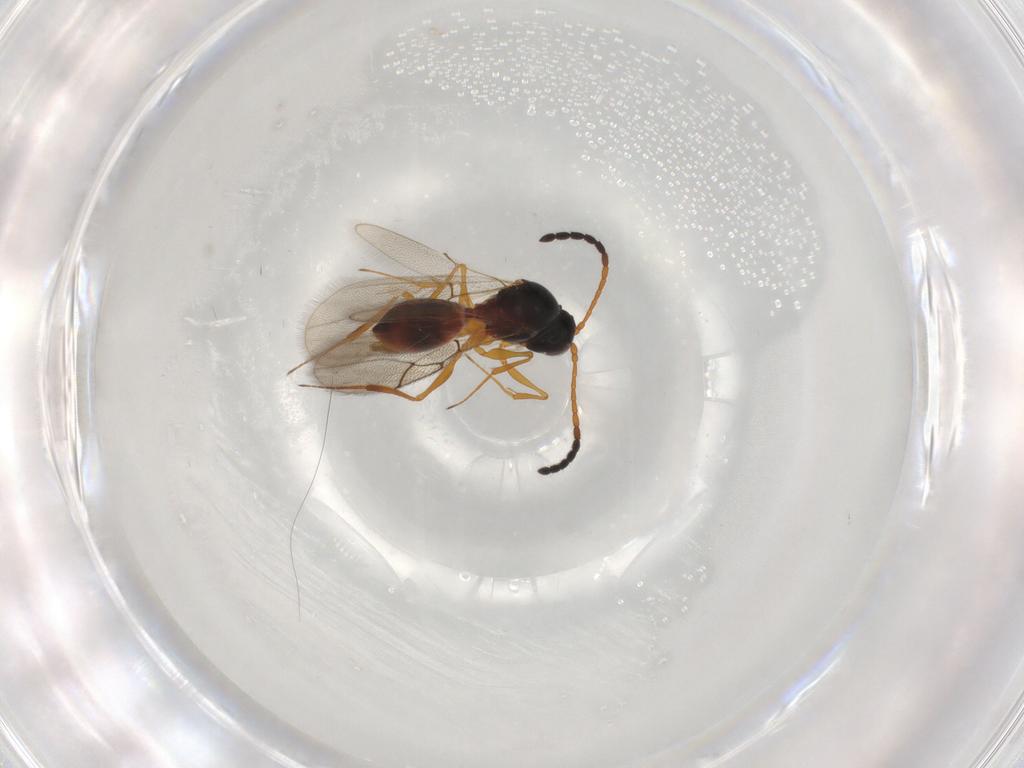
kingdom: Animalia
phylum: Arthropoda
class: Insecta
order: Hymenoptera
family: Figitidae
